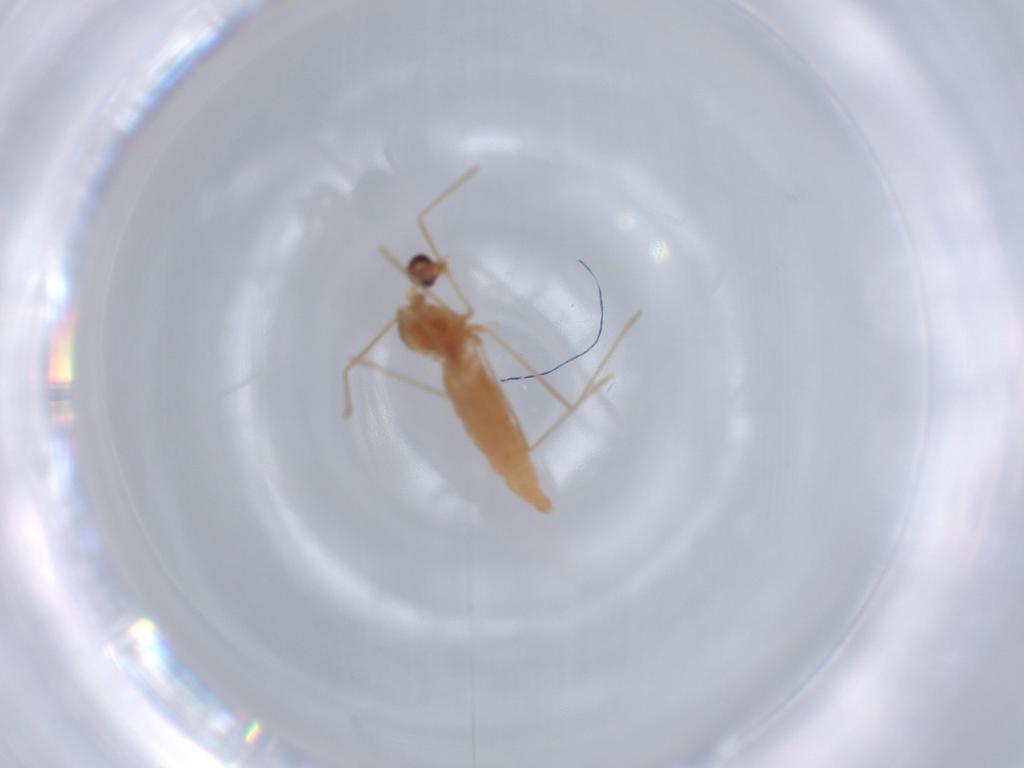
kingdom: Animalia
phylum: Arthropoda
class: Insecta
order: Diptera
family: Cecidomyiidae
